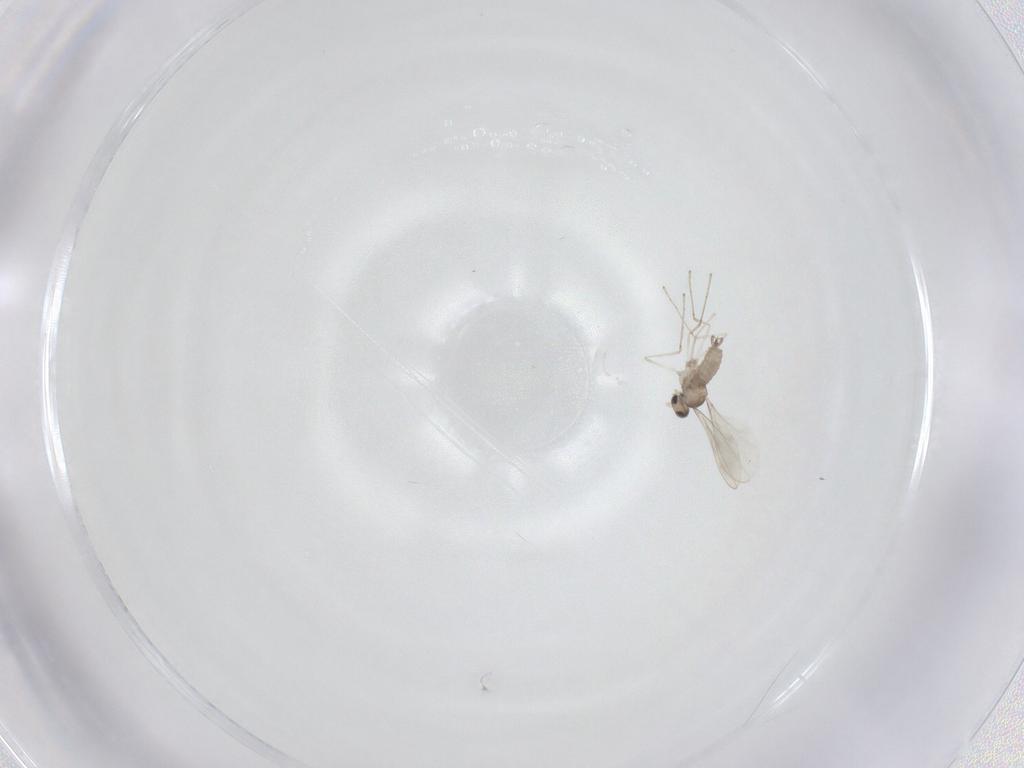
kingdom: Animalia
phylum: Arthropoda
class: Insecta
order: Diptera
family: Cecidomyiidae
